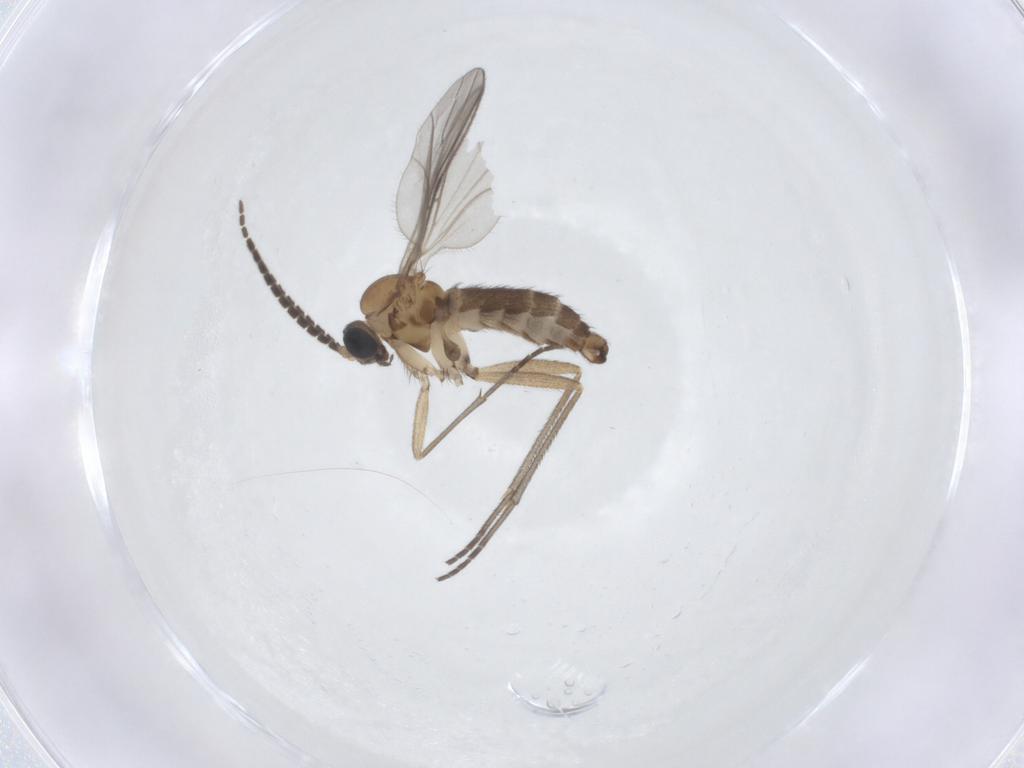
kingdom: Animalia
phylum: Arthropoda
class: Insecta
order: Diptera
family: Sciaridae
